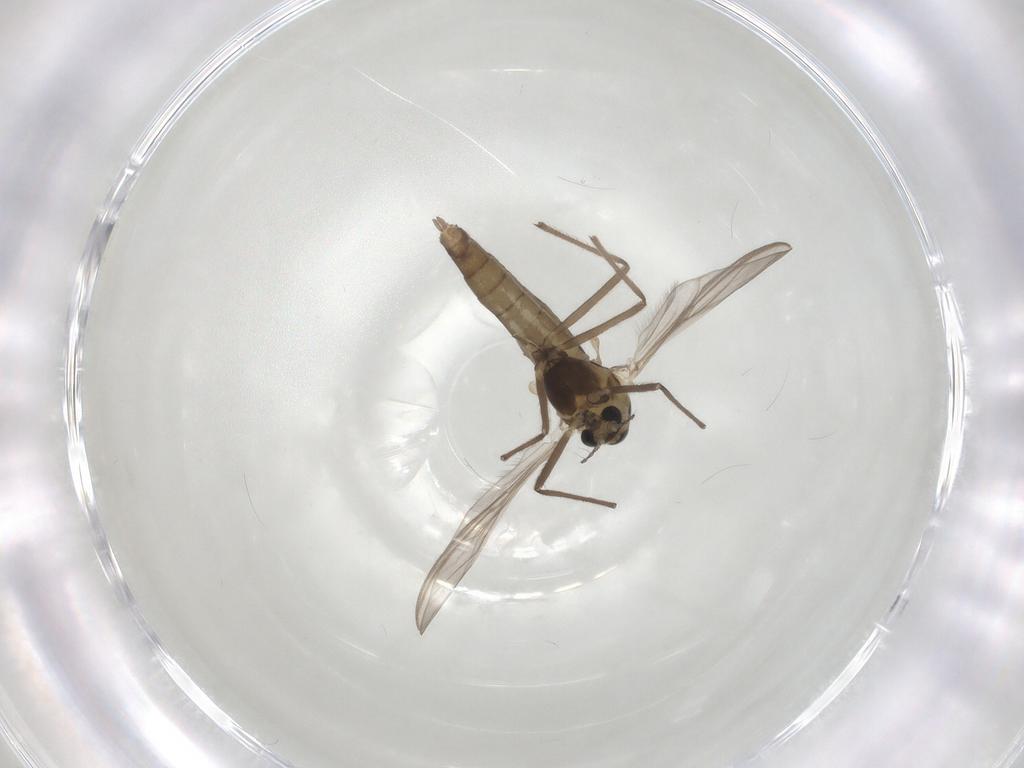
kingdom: Animalia
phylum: Arthropoda
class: Insecta
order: Diptera
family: Chironomidae
